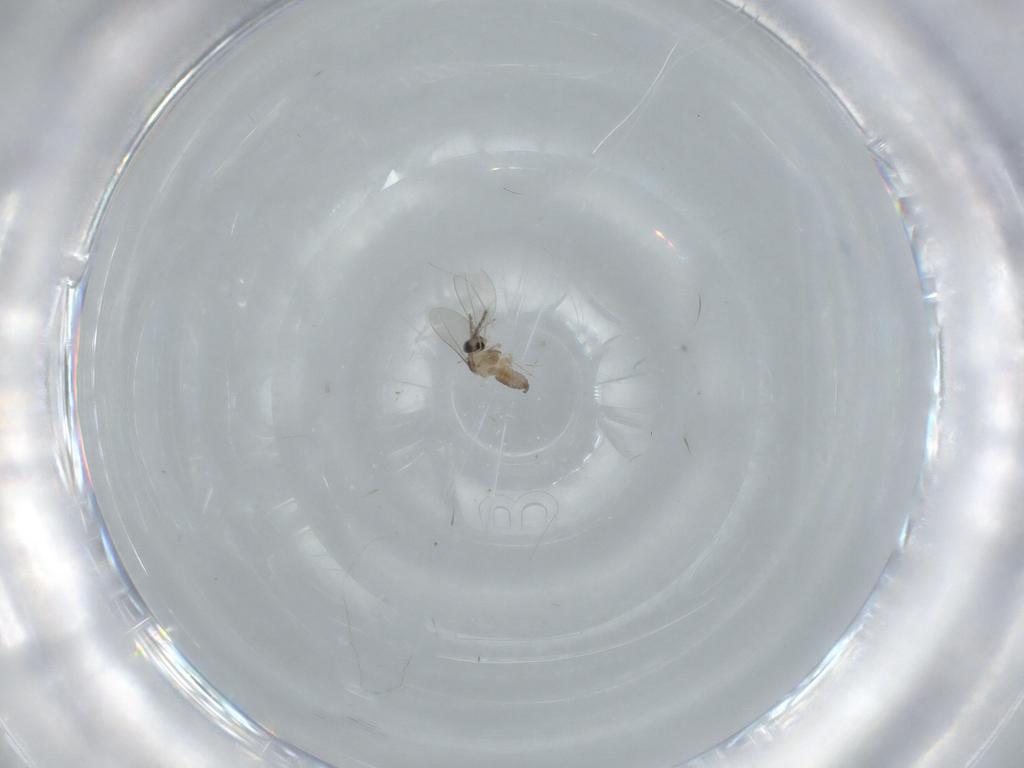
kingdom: Animalia
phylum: Arthropoda
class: Insecta
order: Diptera
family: Cecidomyiidae
